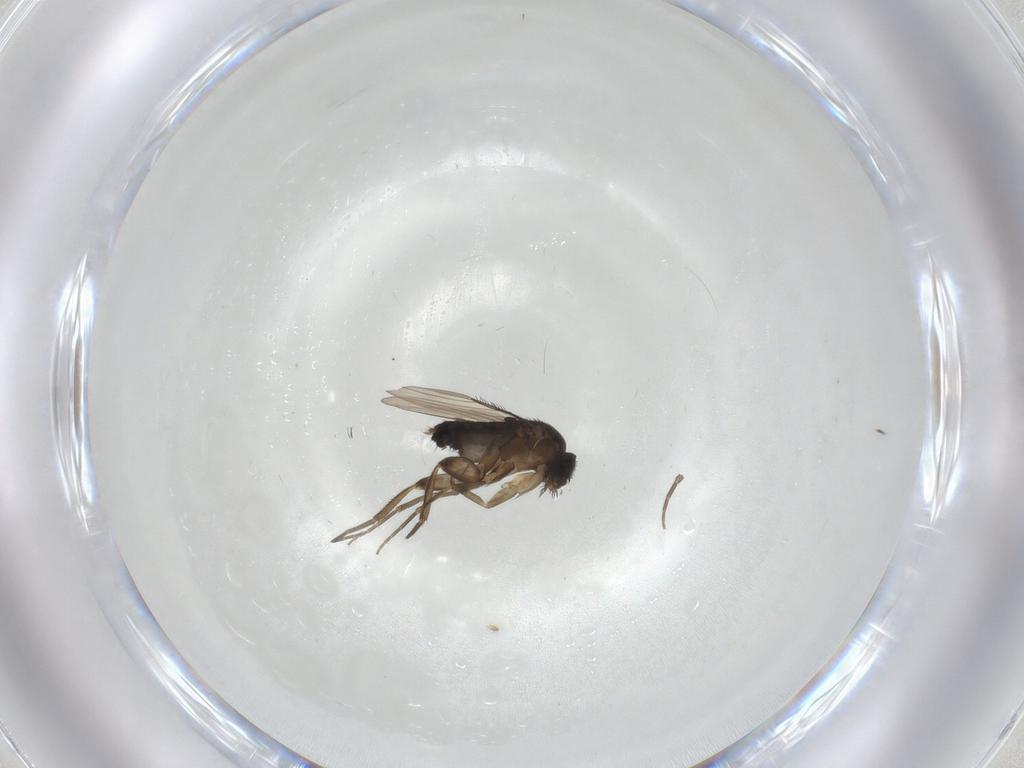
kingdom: Animalia
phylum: Arthropoda
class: Insecta
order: Diptera
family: Phoridae
